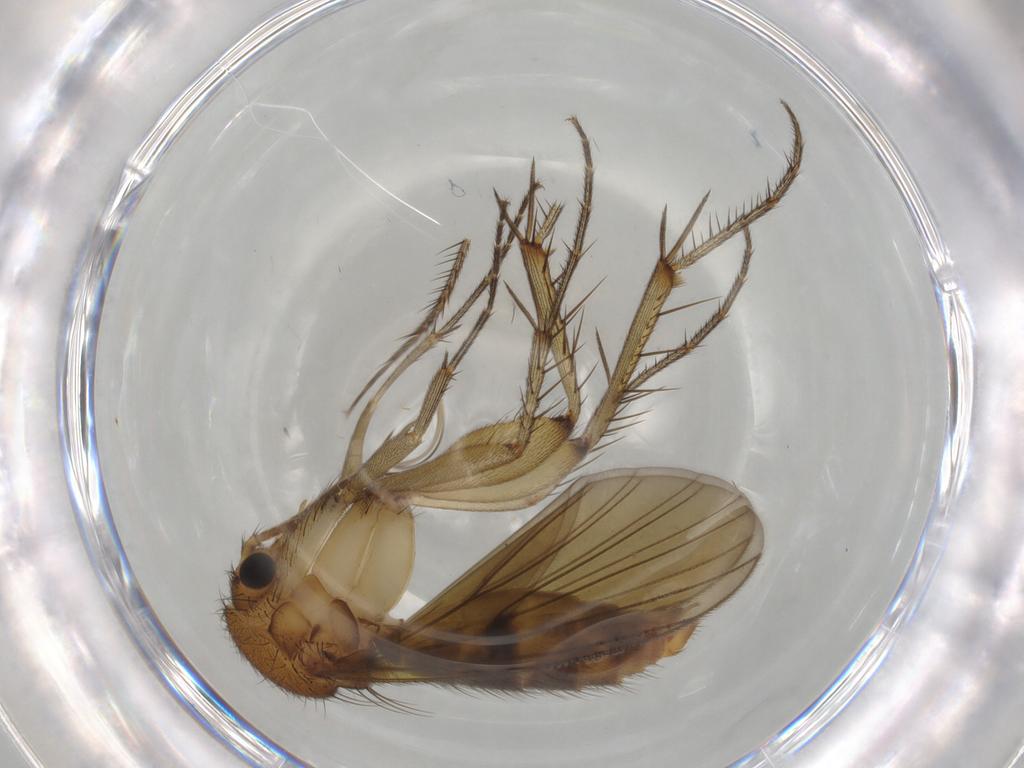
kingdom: Animalia
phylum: Arthropoda
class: Insecta
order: Diptera
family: Mycetophilidae
